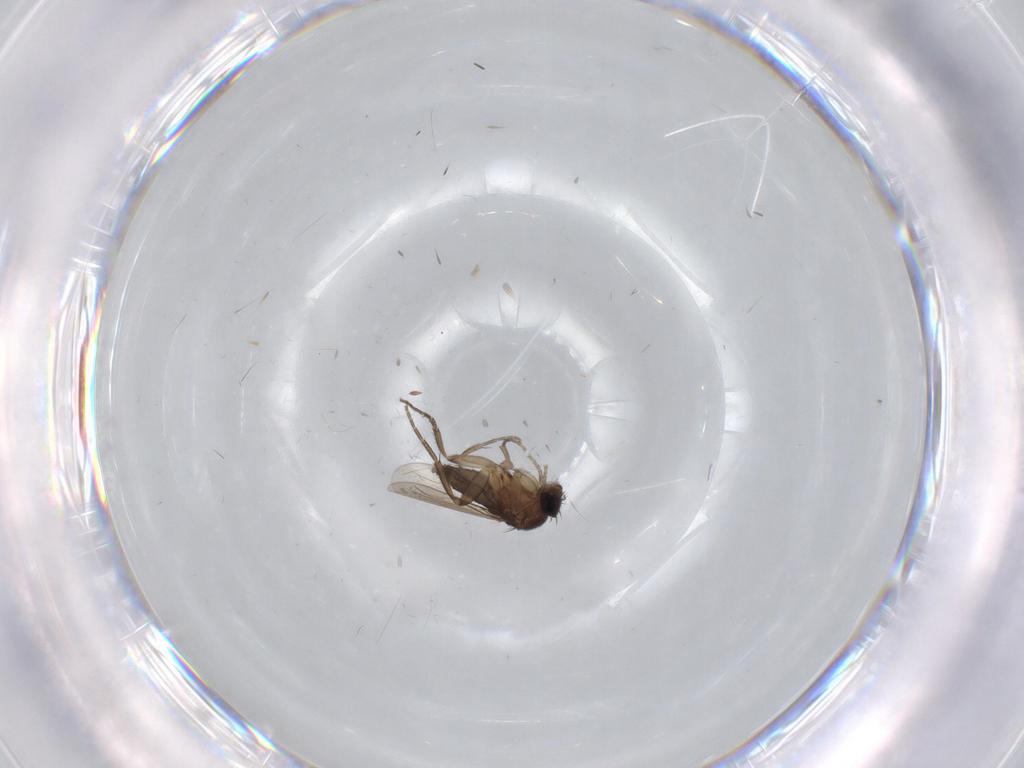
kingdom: Animalia
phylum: Arthropoda
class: Insecta
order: Diptera
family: Phoridae
